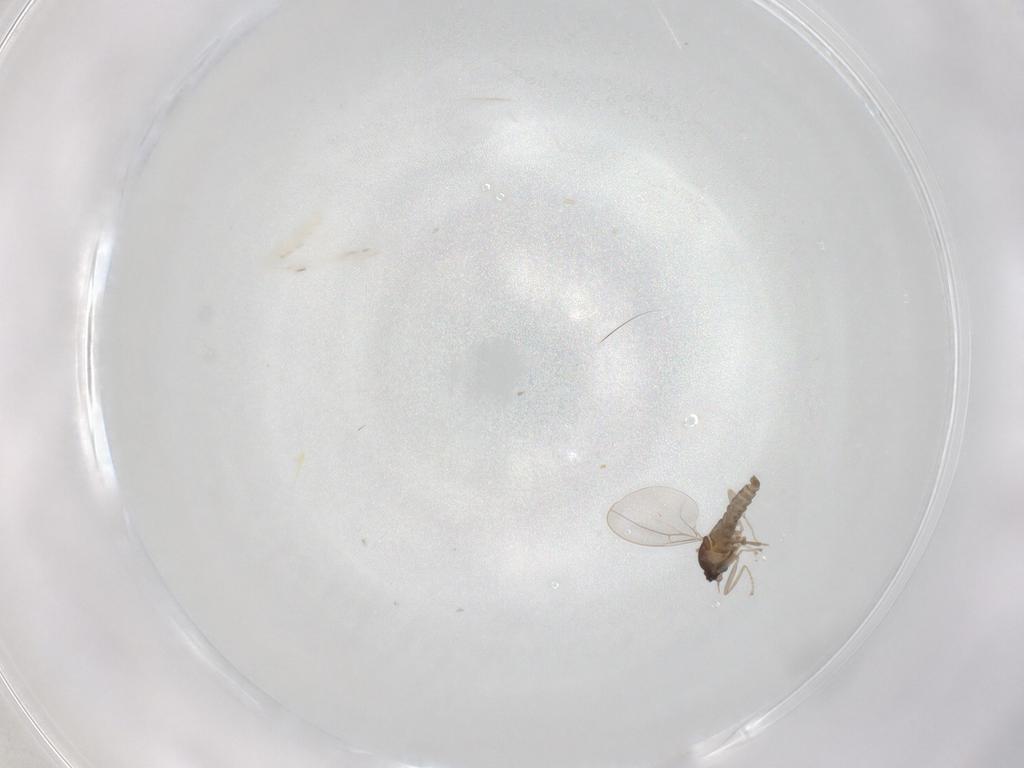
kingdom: Animalia
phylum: Arthropoda
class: Insecta
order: Diptera
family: Cecidomyiidae
